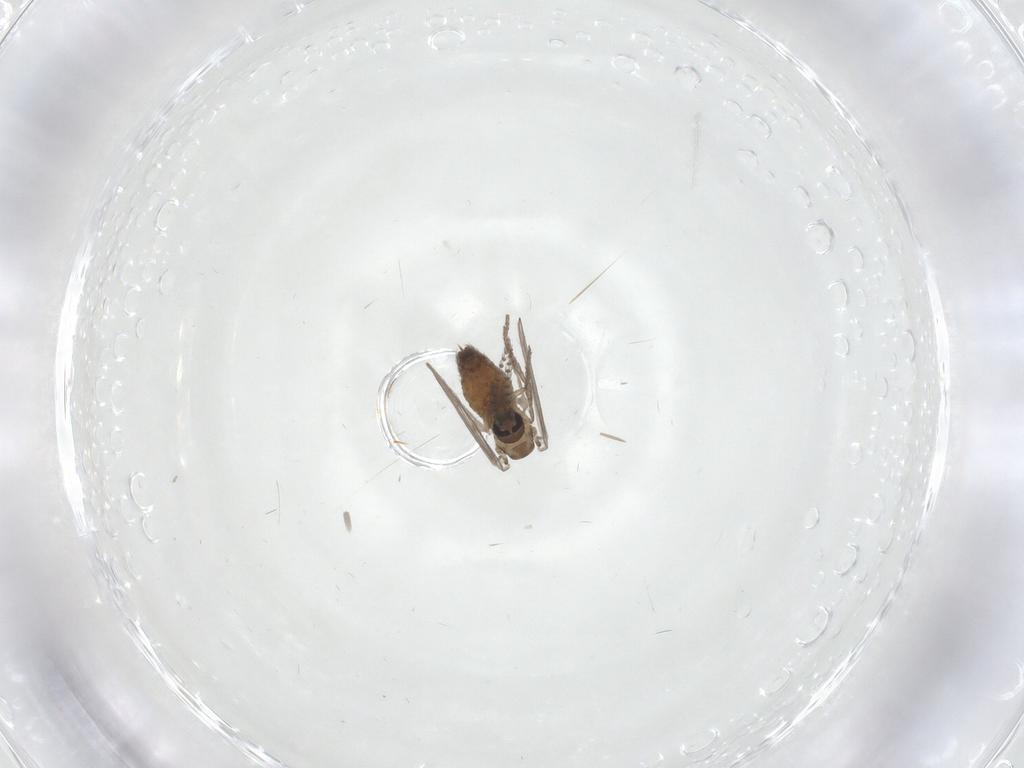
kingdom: Animalia
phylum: Arthropoda
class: Insecta
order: Diptera
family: Psychodidae
